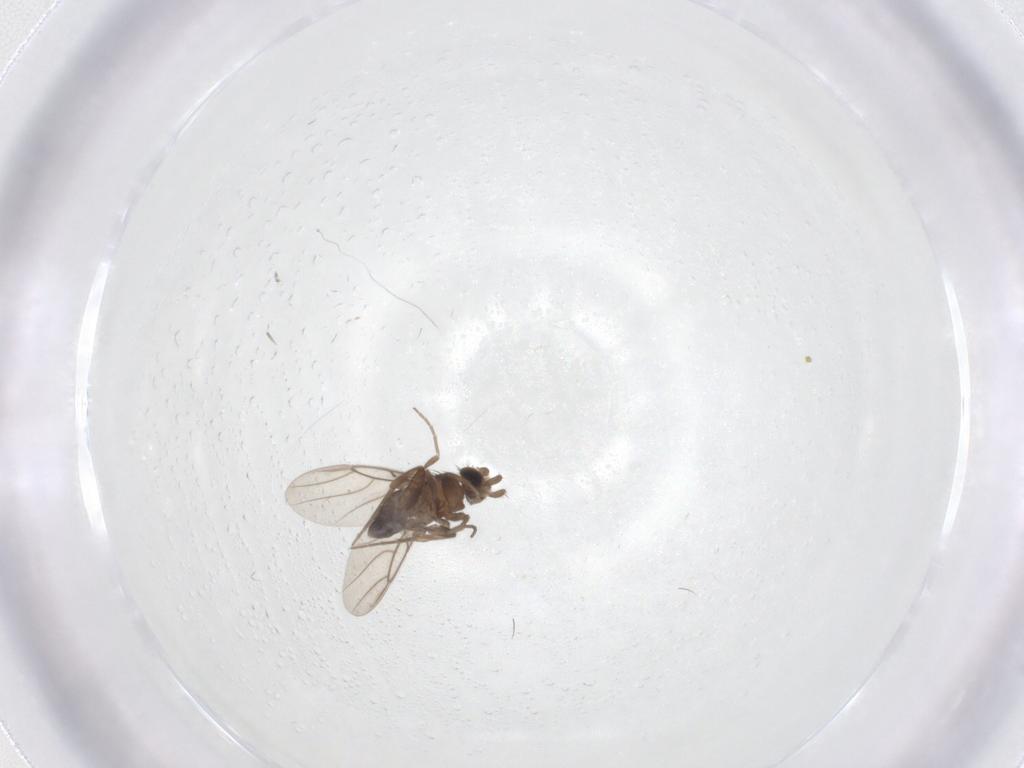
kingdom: Animalia
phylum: Arthropoda
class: Insecta
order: Diptera
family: Phoridae
